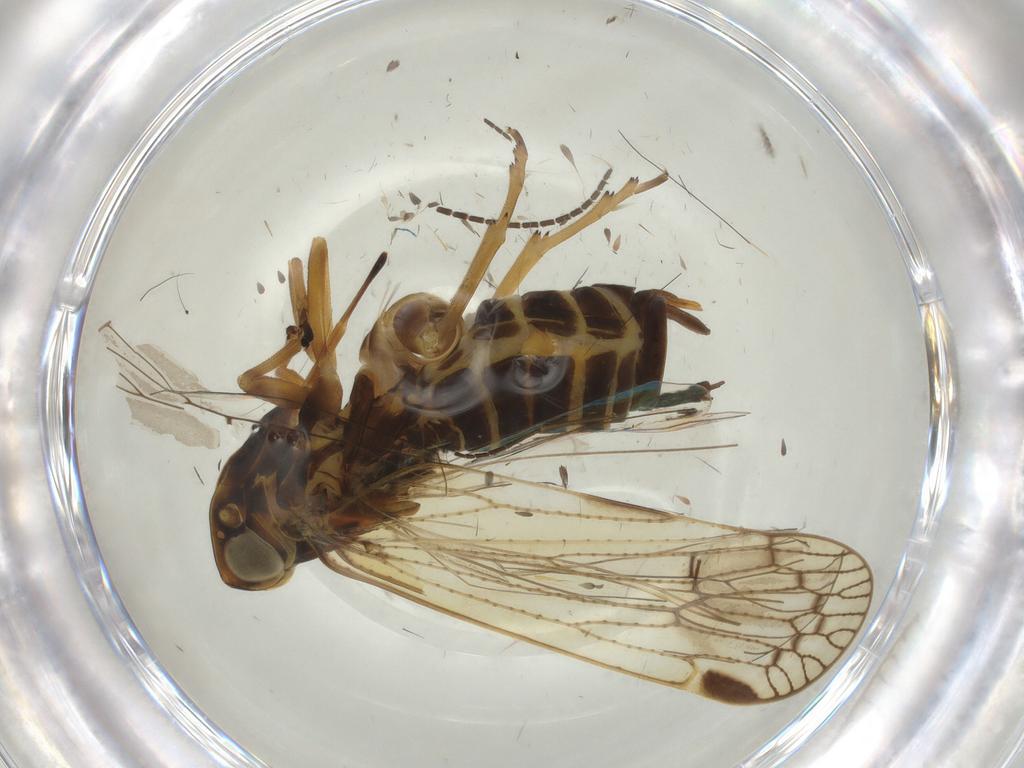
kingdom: Animalia
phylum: Arthropoda
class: Insecta
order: Hemiptera
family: Cixiidae
